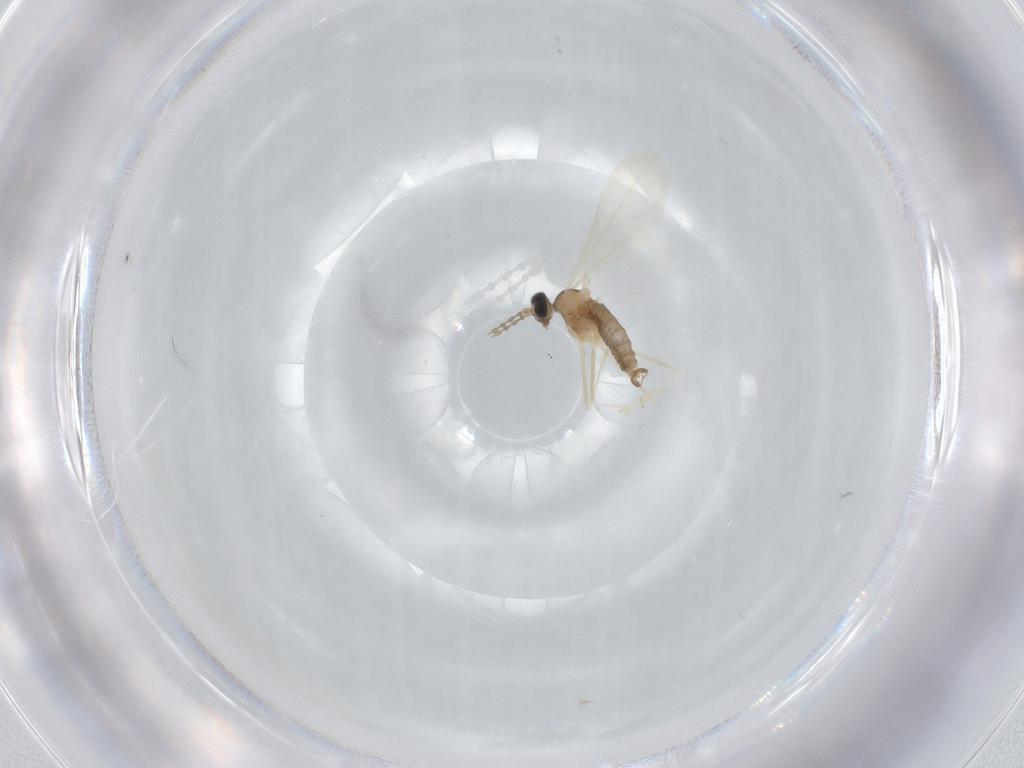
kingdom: Animalia
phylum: Arthropoda
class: Insecta
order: Diptera
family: Cecidomyiidae
